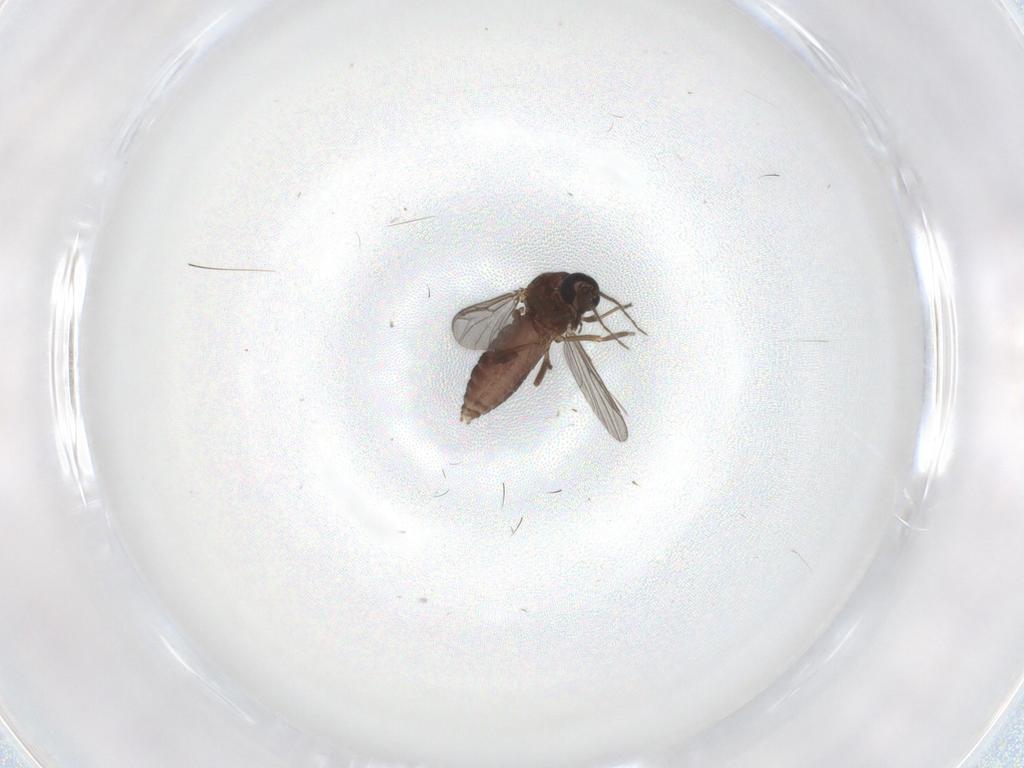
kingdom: Animalia
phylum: Arthropoda
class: Insecta
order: Diptera
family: Ceratopogonidae
